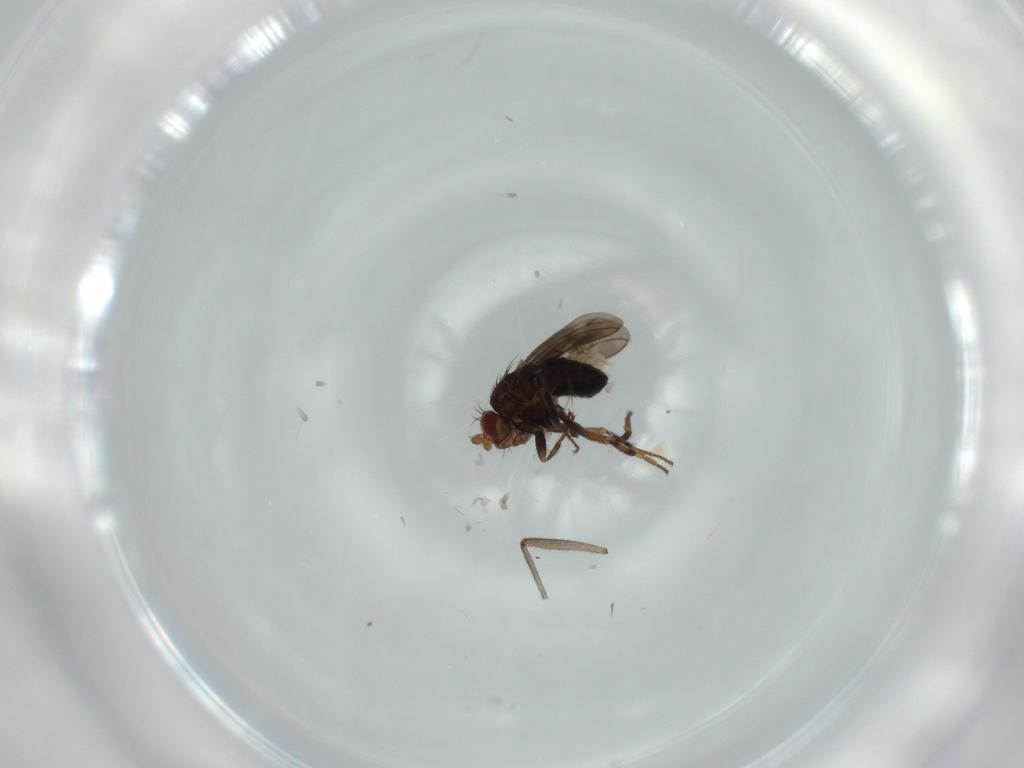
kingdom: Animalia
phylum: Arthropoda
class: Insecta
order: Diptera
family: Sciaridae
